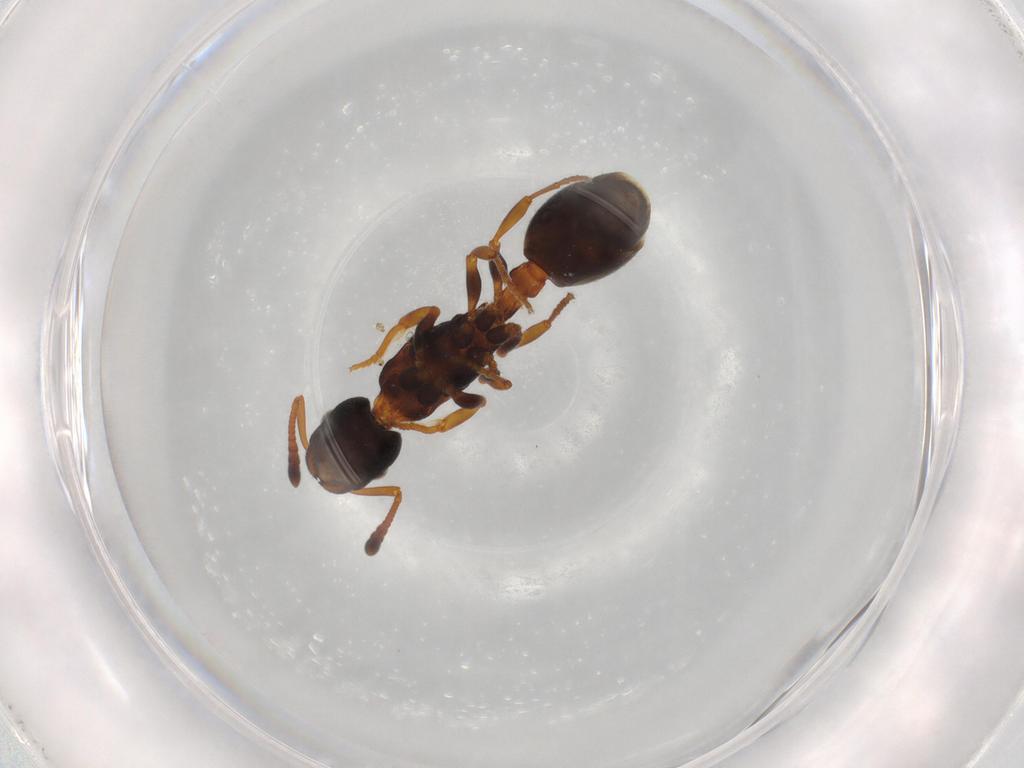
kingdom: Animalia
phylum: Arthropoda
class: Insecta
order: Hymenoptera
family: Formicidae
